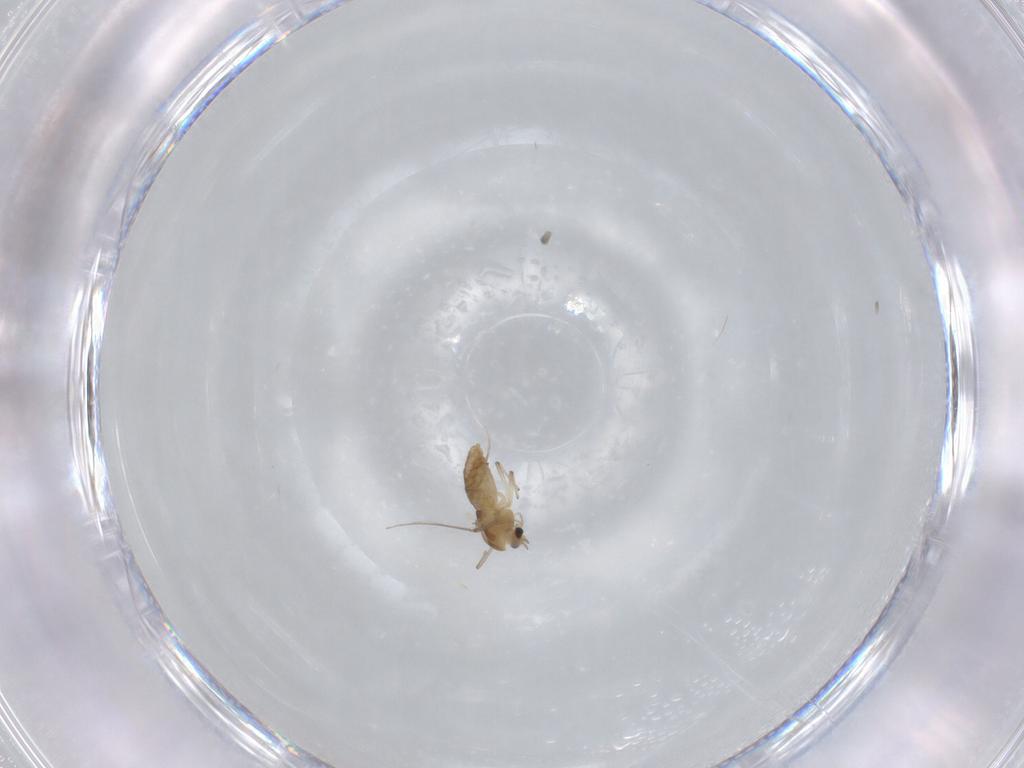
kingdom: Animalia
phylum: Arthropoda
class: Insecta
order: Diptera
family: Chironomidae
